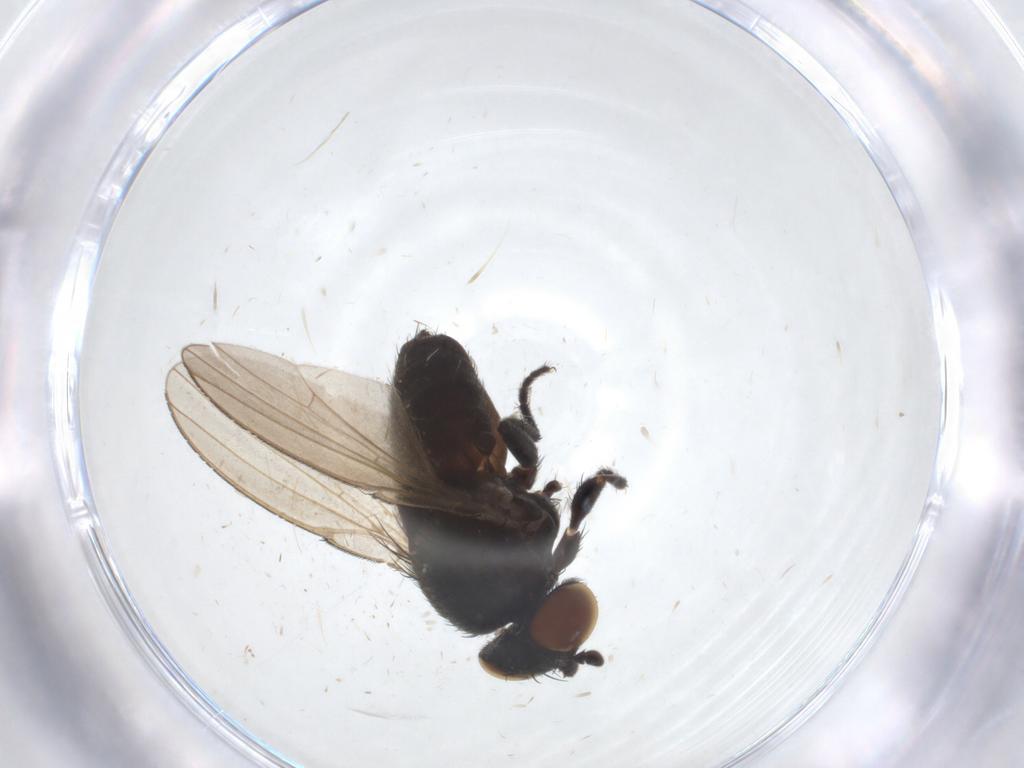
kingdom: Animalia
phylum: Arthropoda
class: Insecta
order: Diptera
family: Milichiidae
